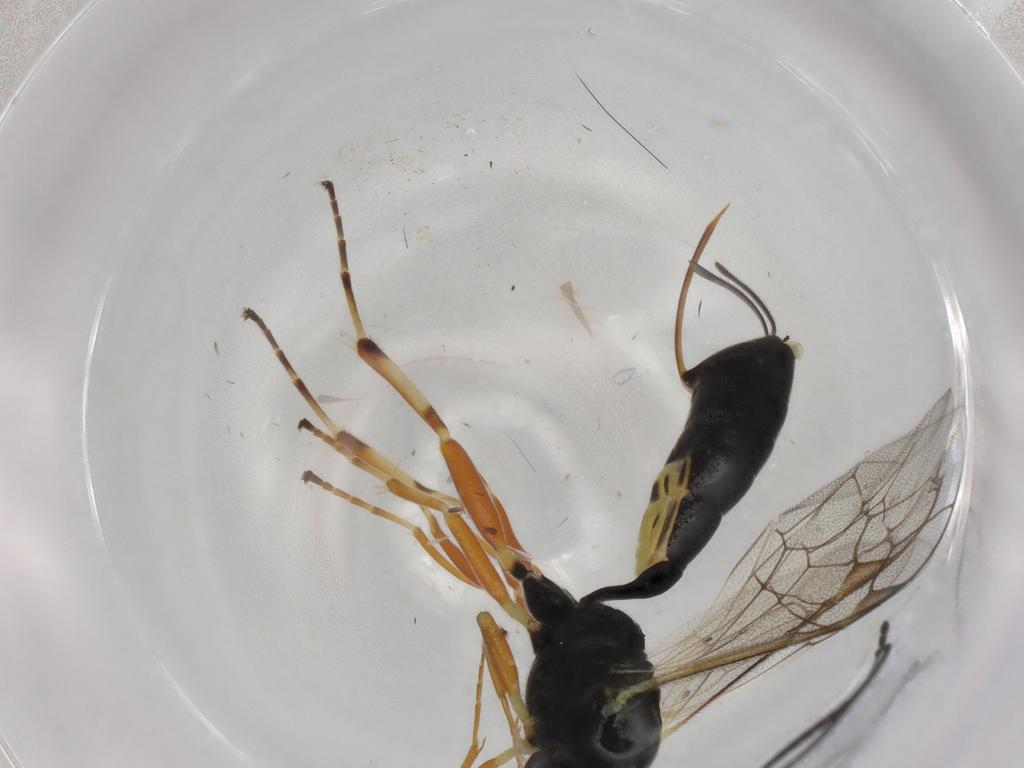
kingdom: Animalia
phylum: Arthropoda
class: Insecta
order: Hymenoptera
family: Ichneumonidae
